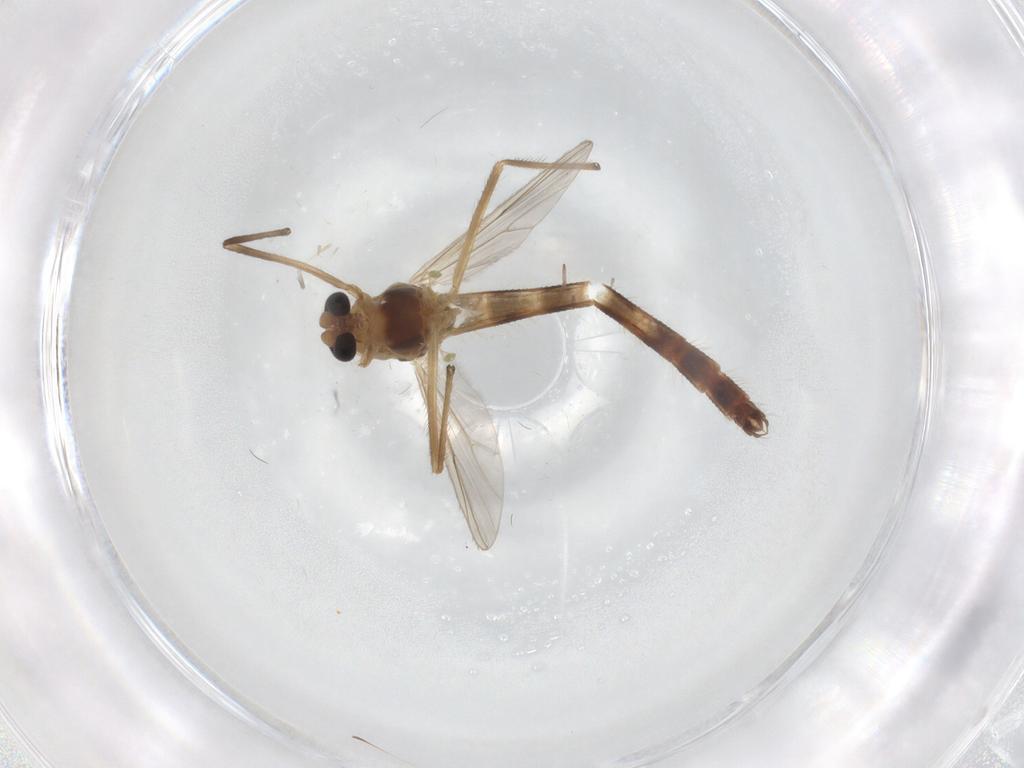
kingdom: Animalia
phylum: Arthropoda
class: Insecta
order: Diptera
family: Chironomidae
